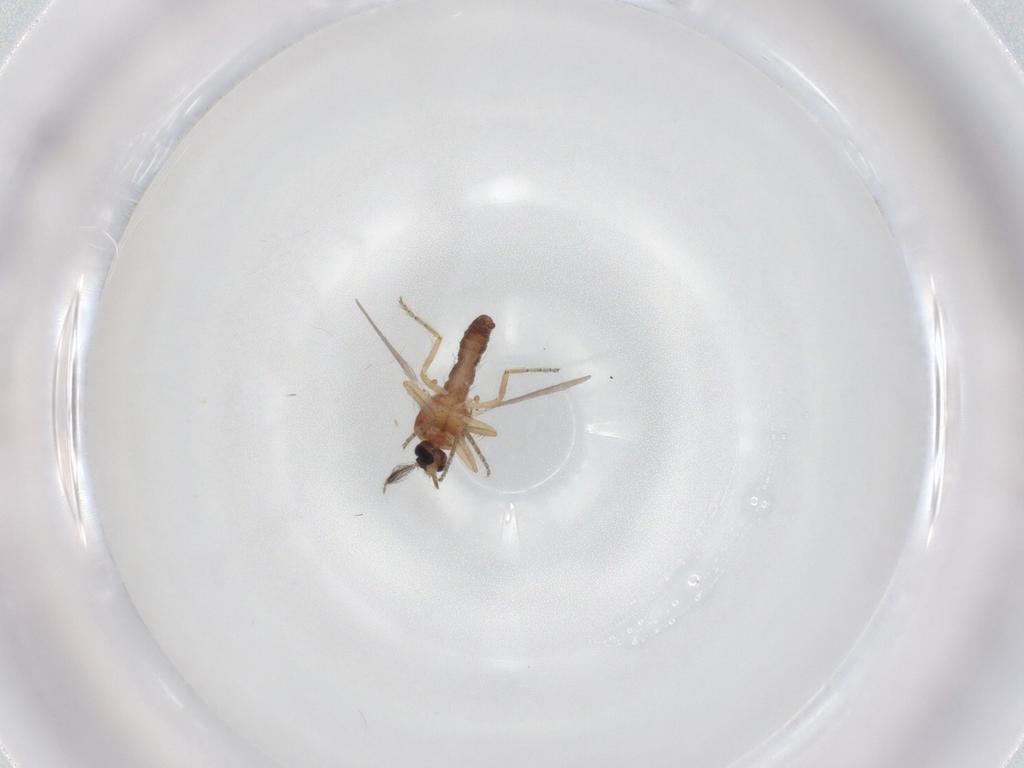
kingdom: Animalia
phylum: Arthropoda
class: Insecta
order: Diptera
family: Ceratopogonidae
